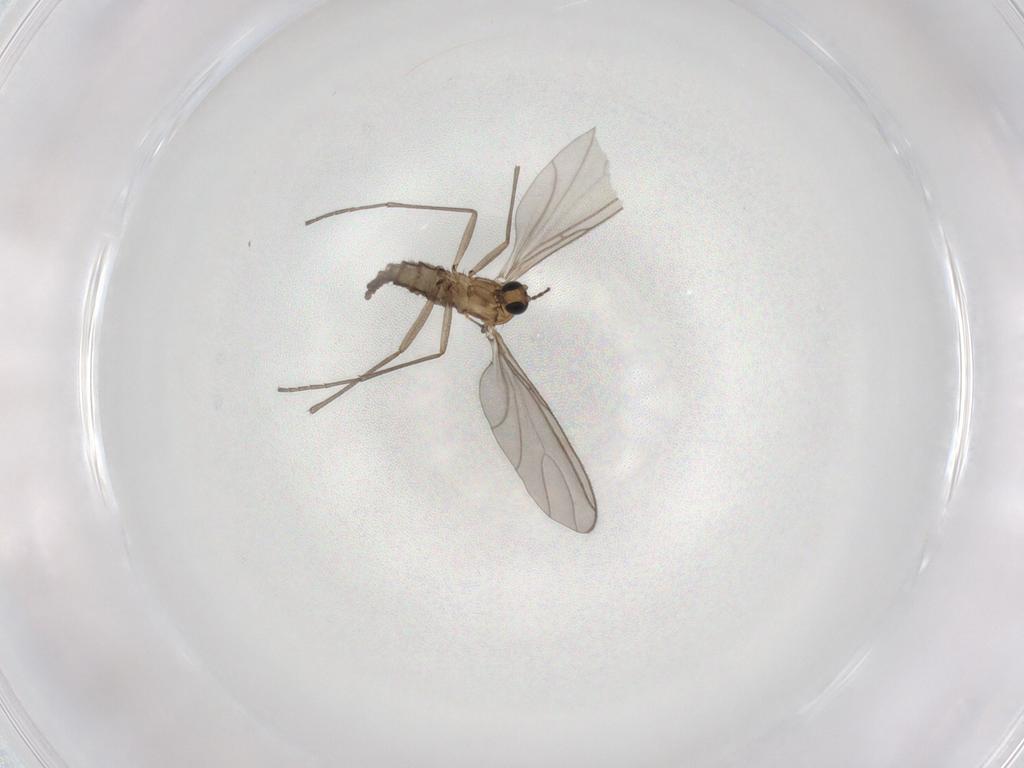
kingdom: Animalia
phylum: Arthropoda
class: Insecta
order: Diptera
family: Sciaridae
